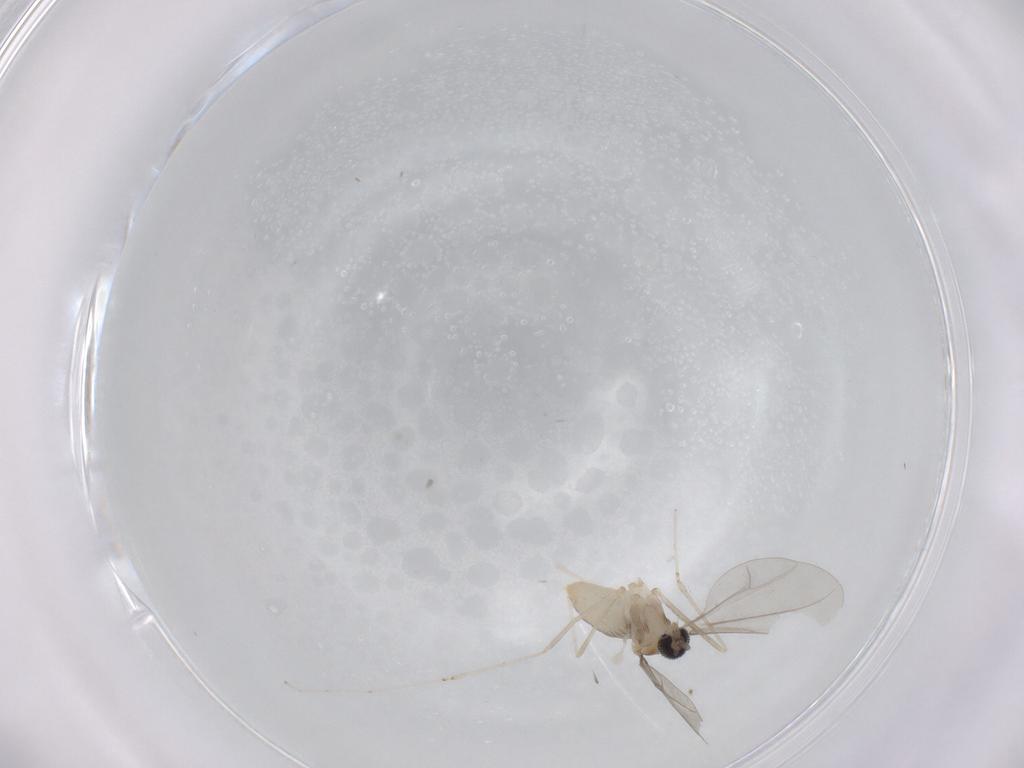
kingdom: Animalia
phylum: Arthropoda
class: Insecta
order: Diptera
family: Cecidomyiidae
